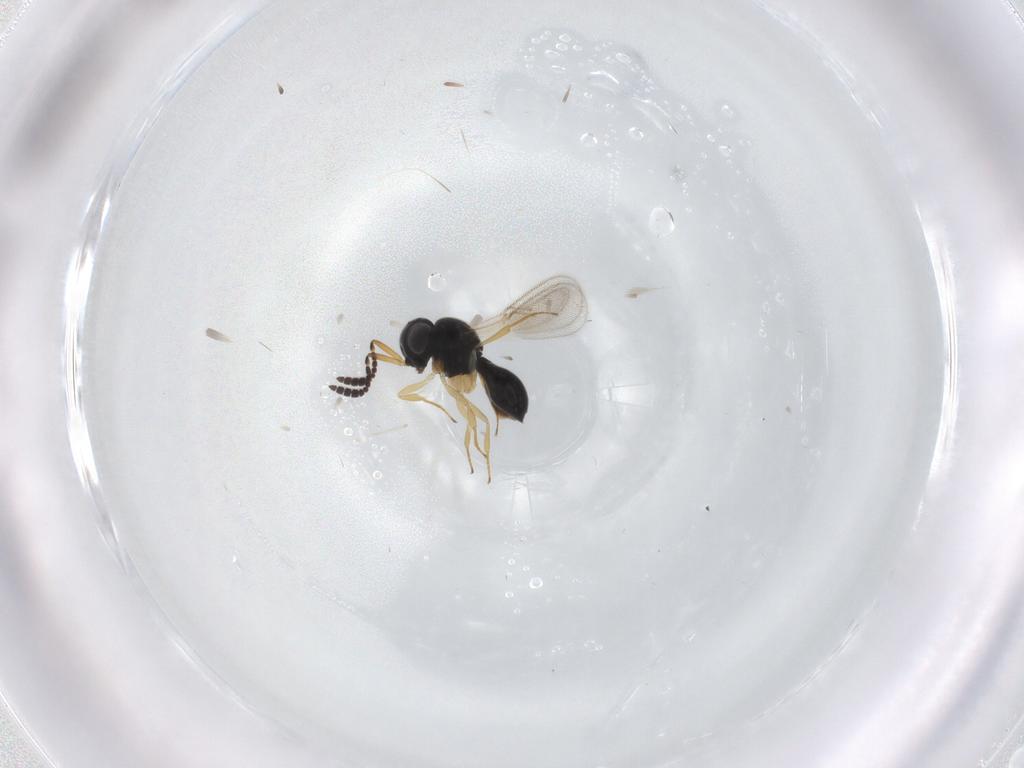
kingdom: Animalia
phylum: Arthropoda
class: Insecta
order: Hymenoptera
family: Scelionidae
